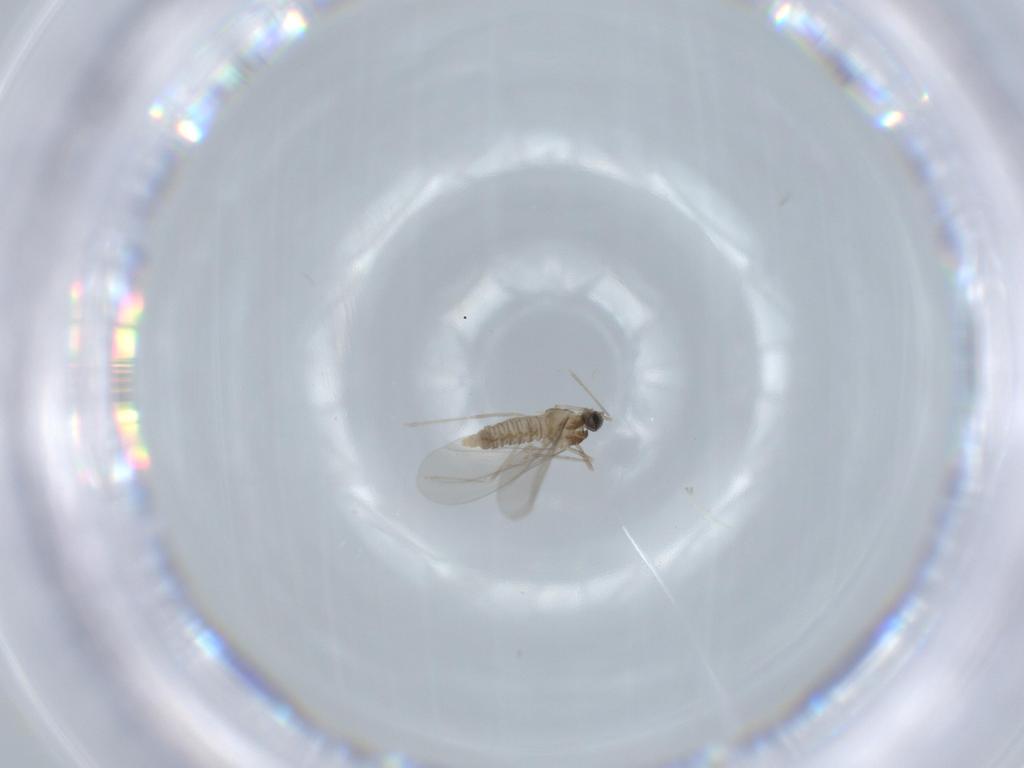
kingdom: Animalia
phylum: Arthropoda
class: Insecta
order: Diptera
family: Cecidomyiidae
